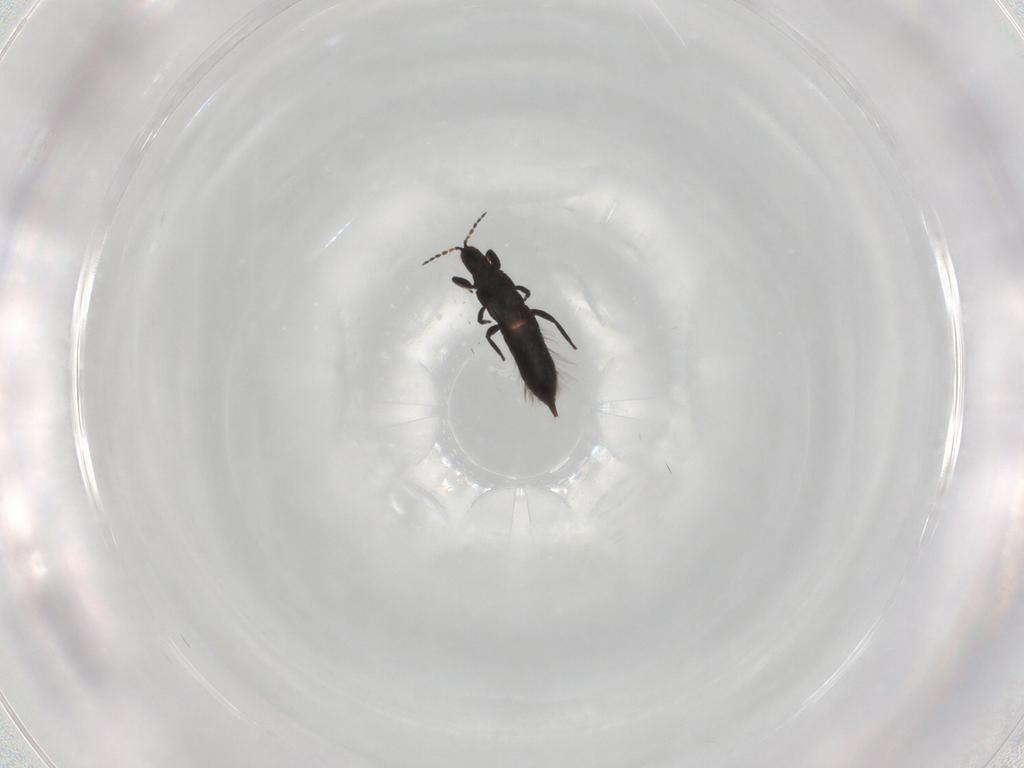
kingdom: Animalia
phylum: Arthropoda
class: Insecta
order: Thysanoptera
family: Phlaeothripidae
